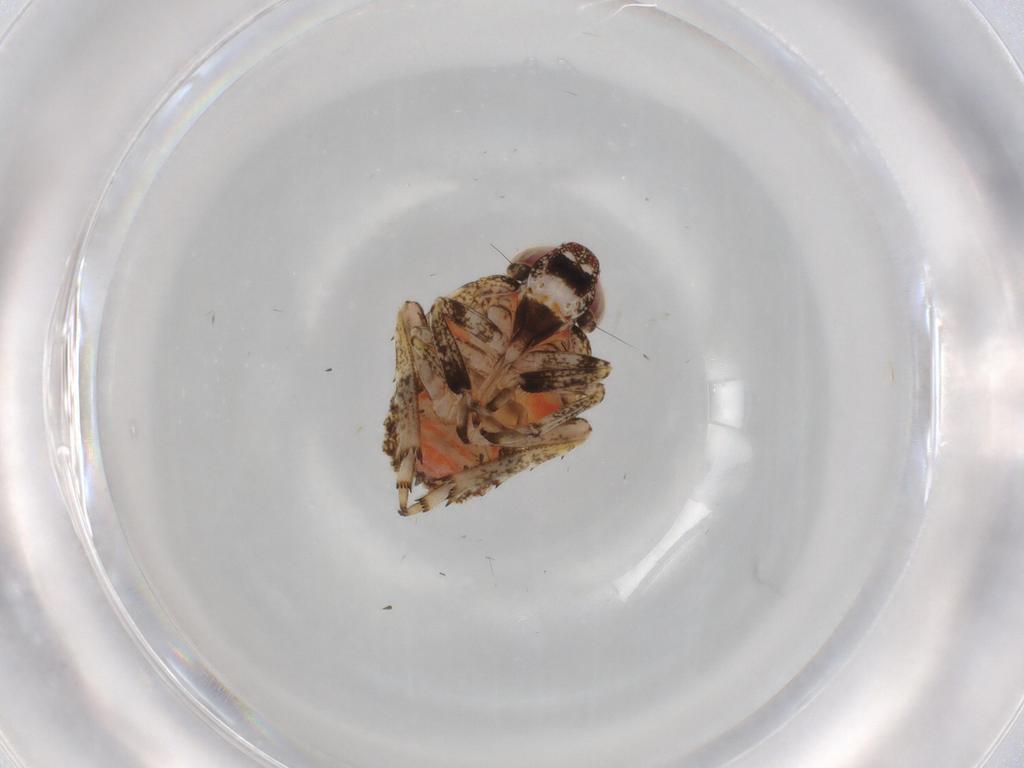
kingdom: Animalia
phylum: Arthropoda
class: Insecta
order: Hemiptera
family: Issidae
